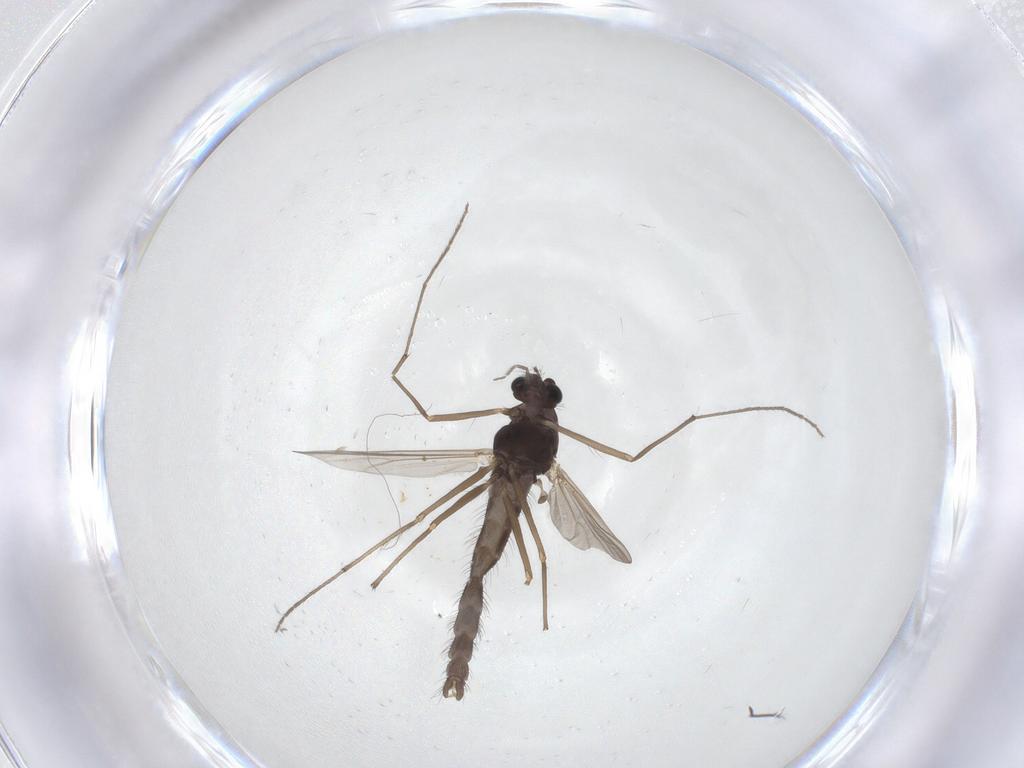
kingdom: Animalia
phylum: Arthropoda
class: Insecta
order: Diptera
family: Chironomidae
